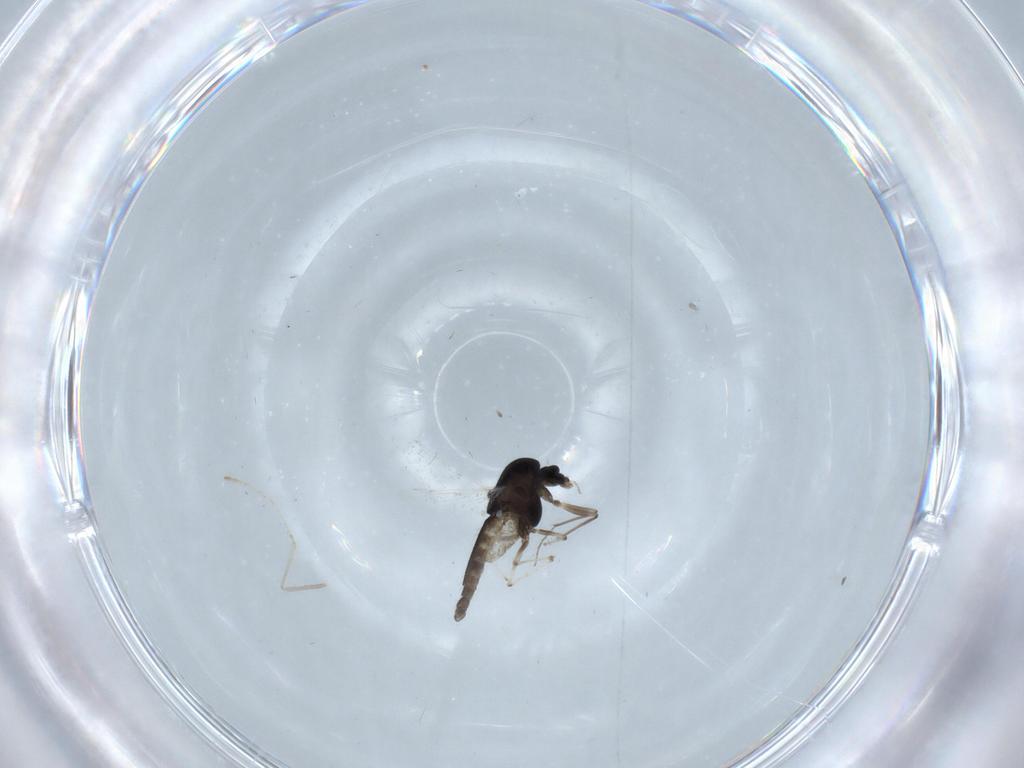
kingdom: Animalia
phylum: Arthropoda
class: Insecta
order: Diptera
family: Chironomidae
